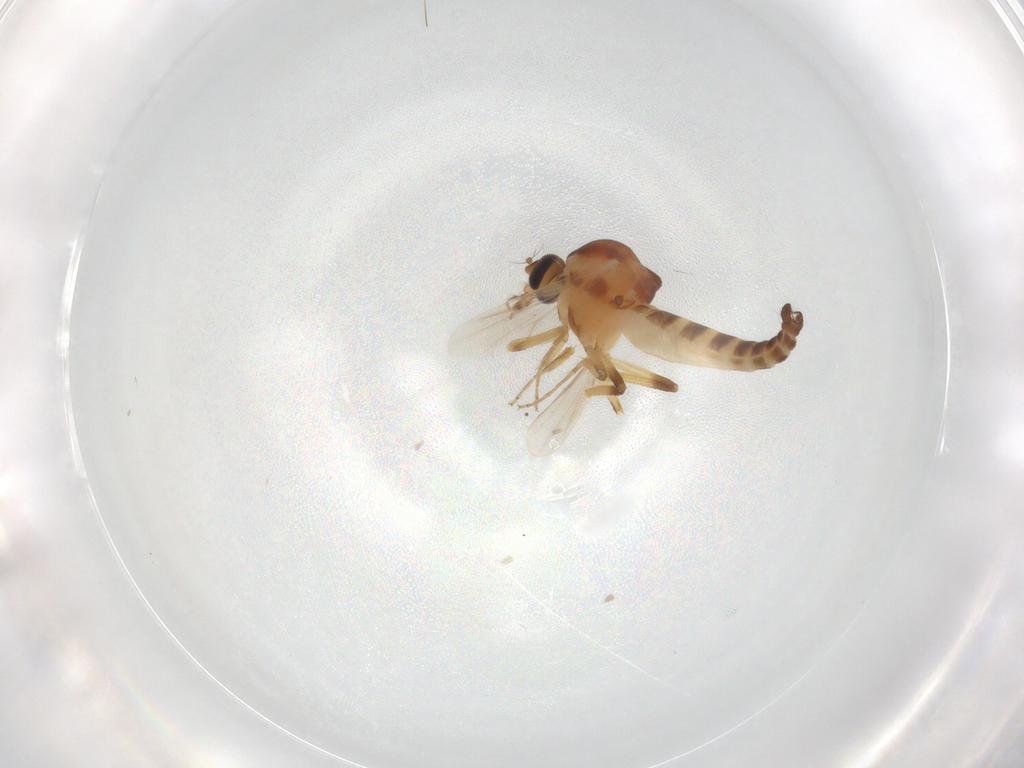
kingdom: Animalia
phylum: Arthropoda
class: Insecta
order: Diptera
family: Ceratopogonidae
